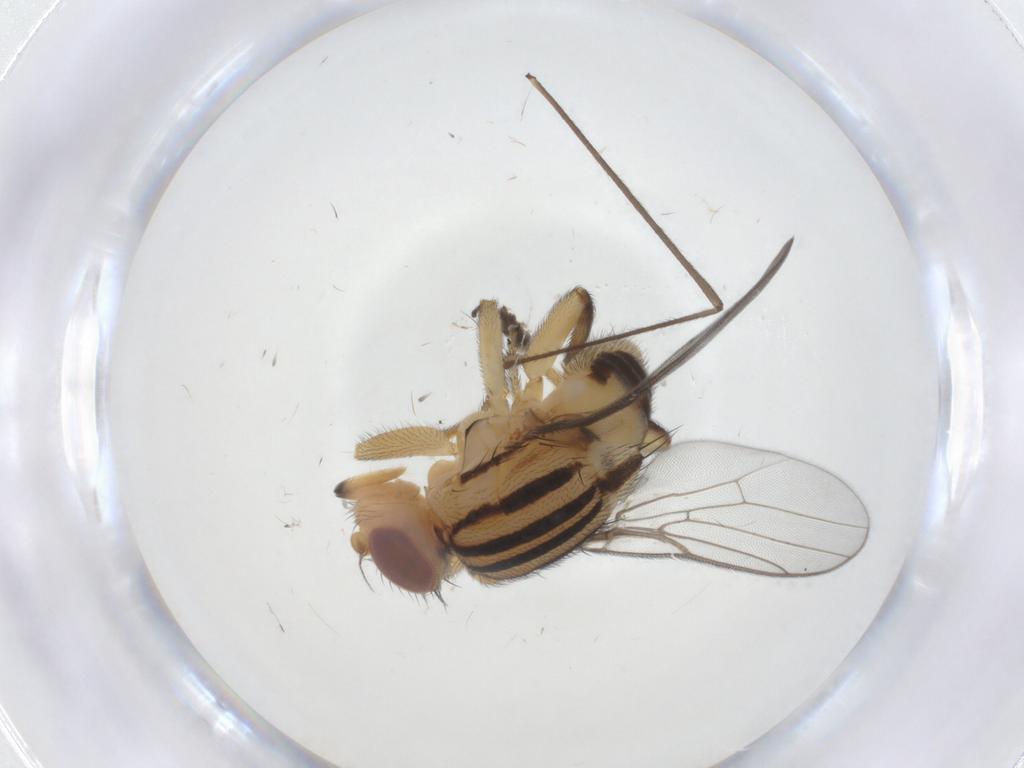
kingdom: Animalia
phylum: Arthropoda
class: Insecta
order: Diptera
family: Chloropidae
